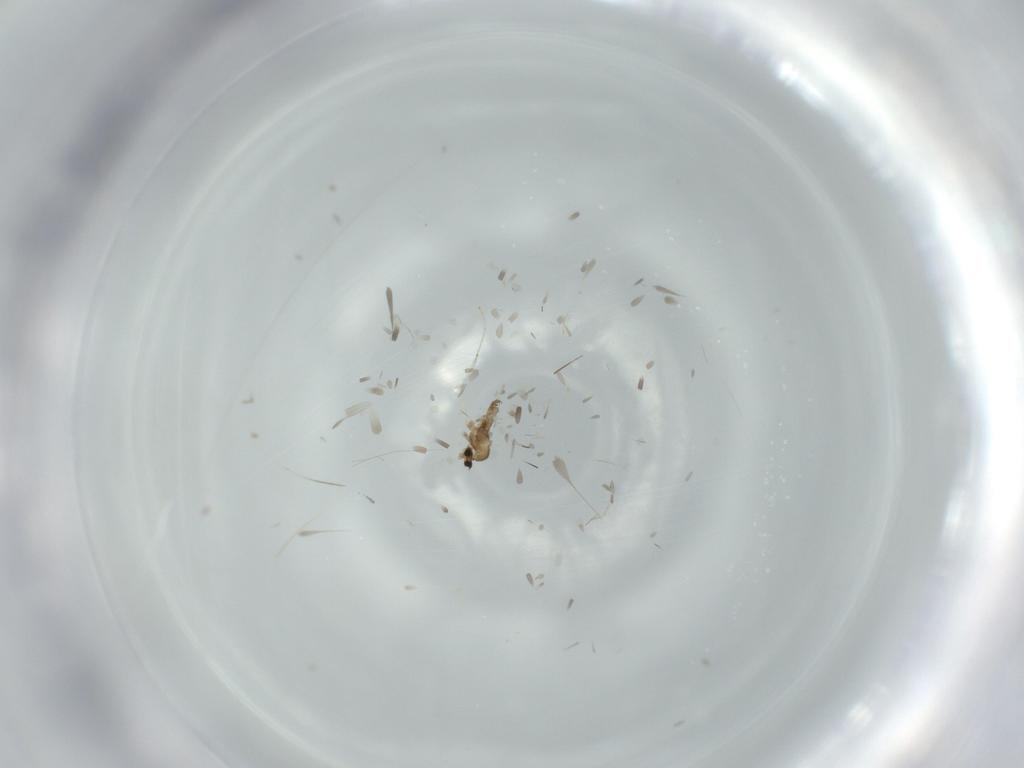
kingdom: Animalia
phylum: Arthropoda
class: Insecta
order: Diptera
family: Cecidomyiidae
